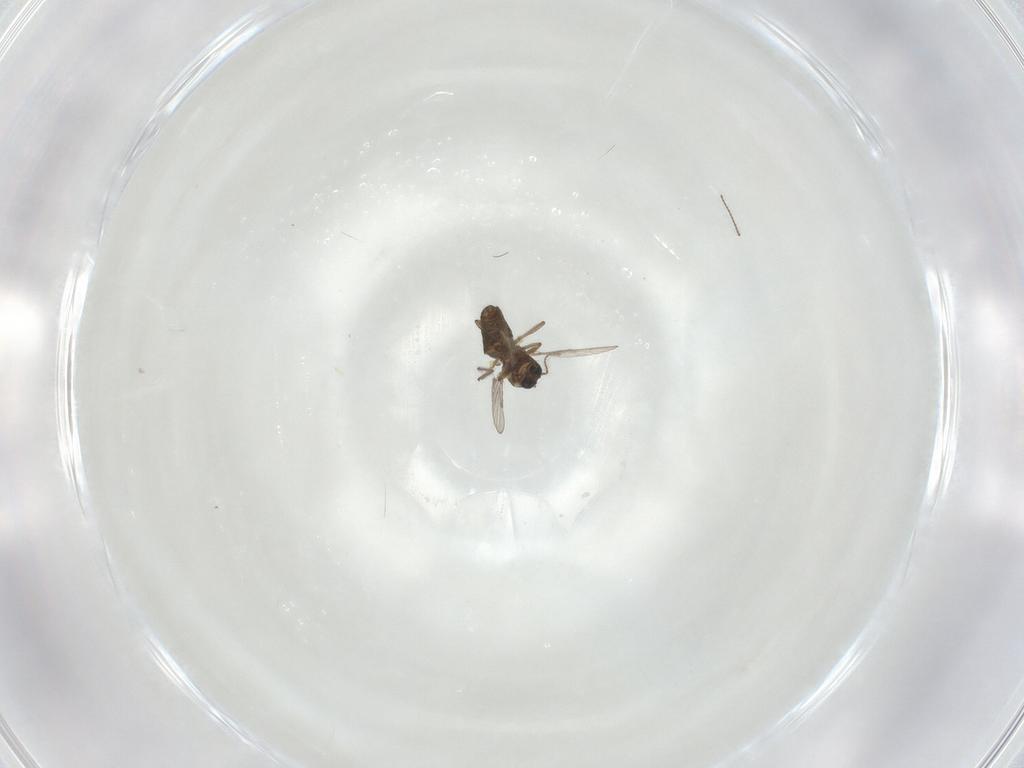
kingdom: Animalia
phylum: Arthropoda
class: Insecta
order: Diptera
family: Ceratopogonidae
